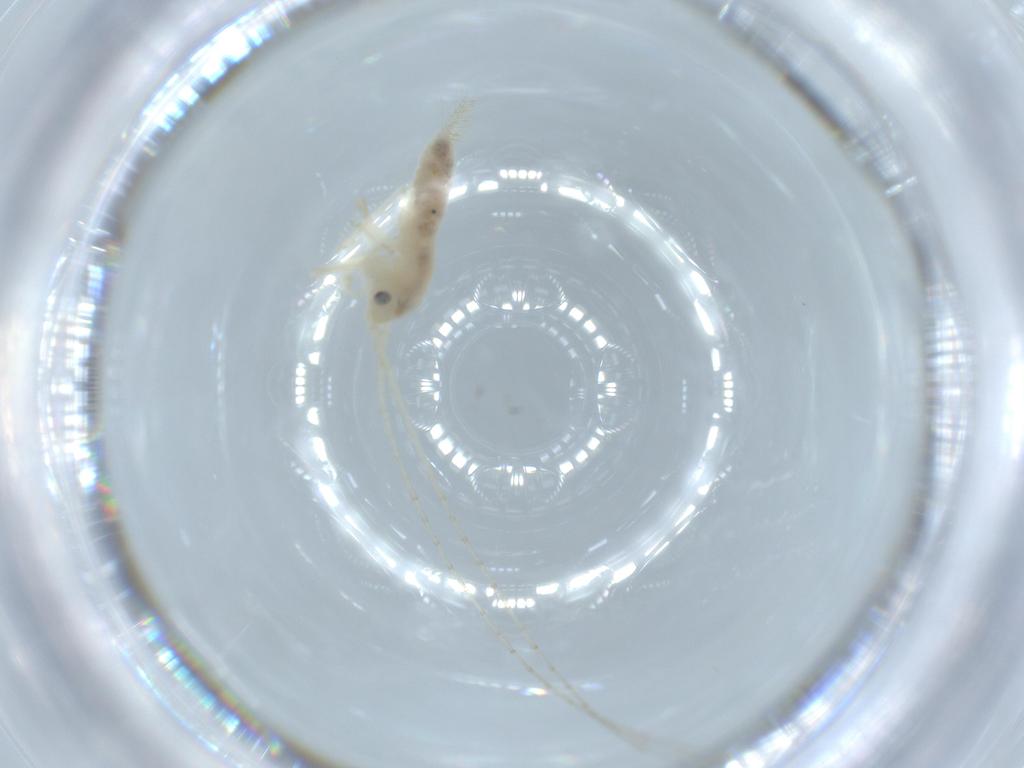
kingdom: Animalia
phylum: Arthropoda
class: Insecta
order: Orthoptera
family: Trigonidiidae
